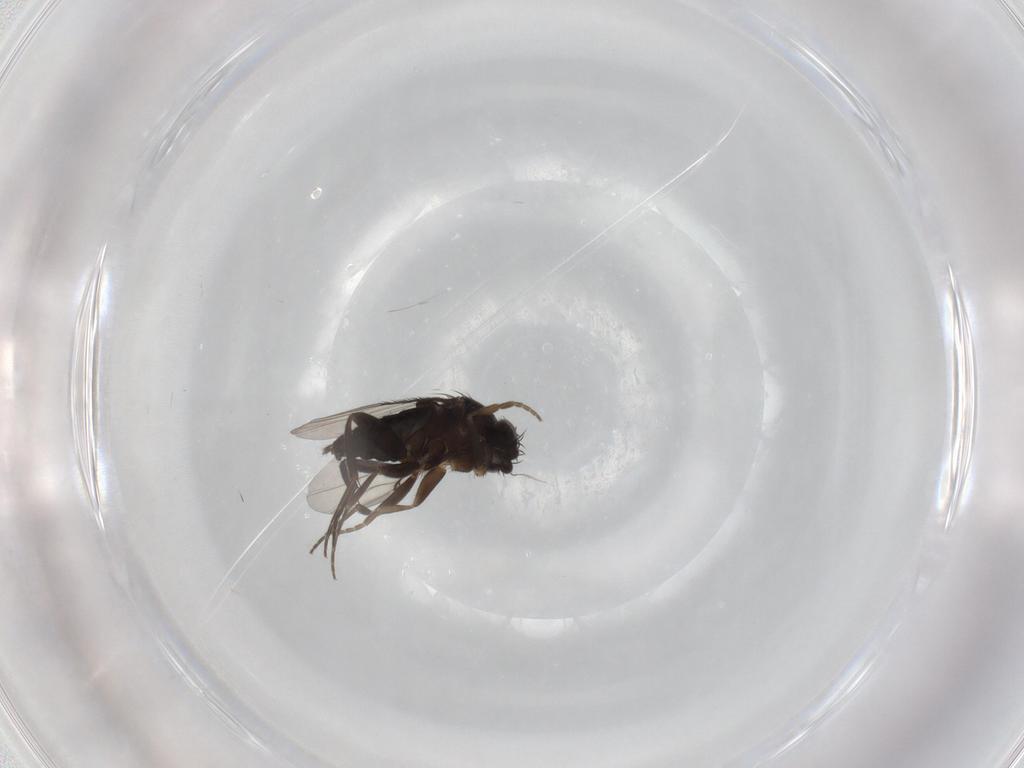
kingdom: Animalia
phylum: Arthropoda
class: Insecta
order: Diptera
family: Phoridae
